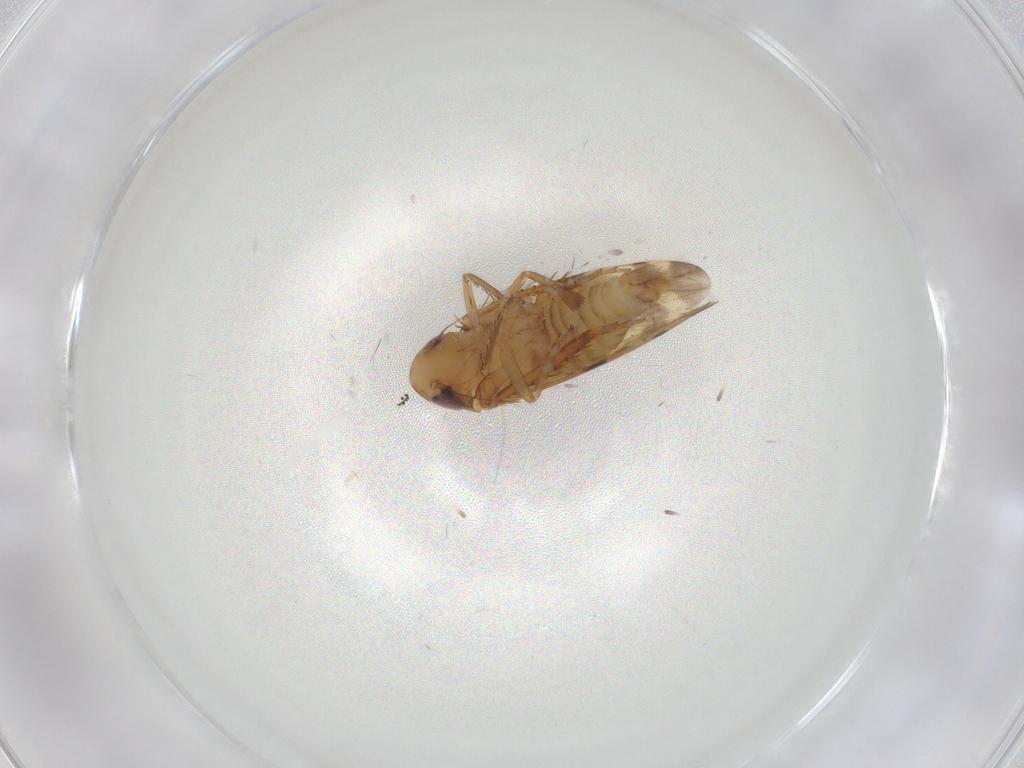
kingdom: Animalia
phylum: Arthropoda
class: Insecta
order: Hemiptera
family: Cicadellidae
